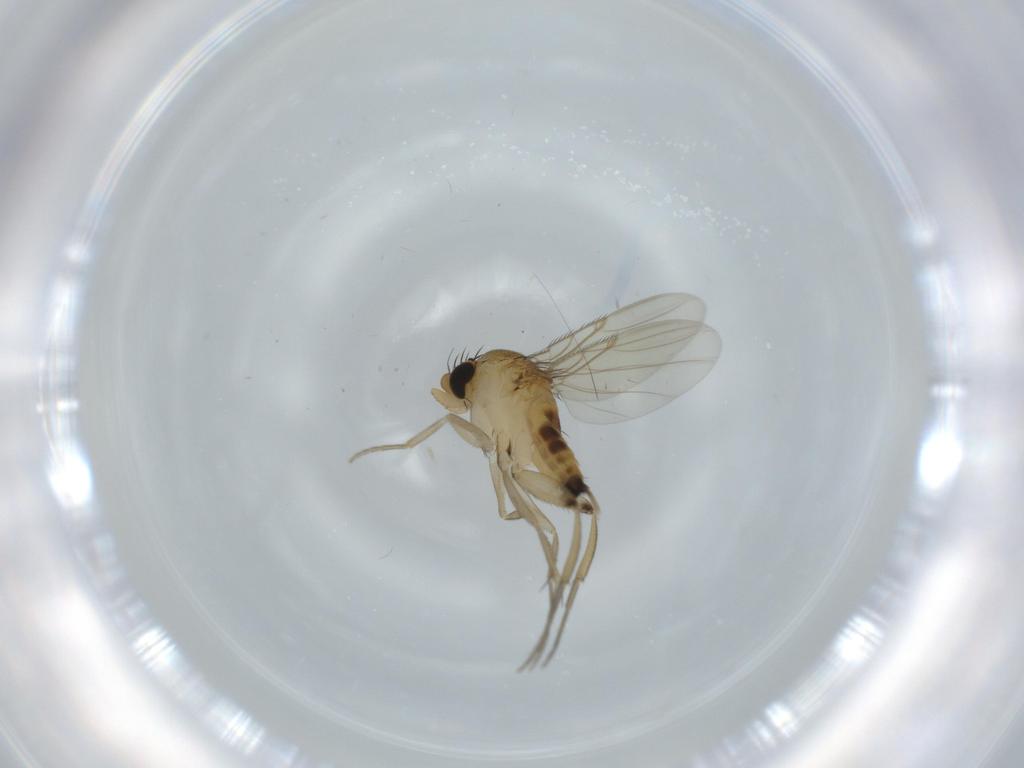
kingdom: Animalia
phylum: Arthropoda
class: Insecta
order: Diptera
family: Phoridae
